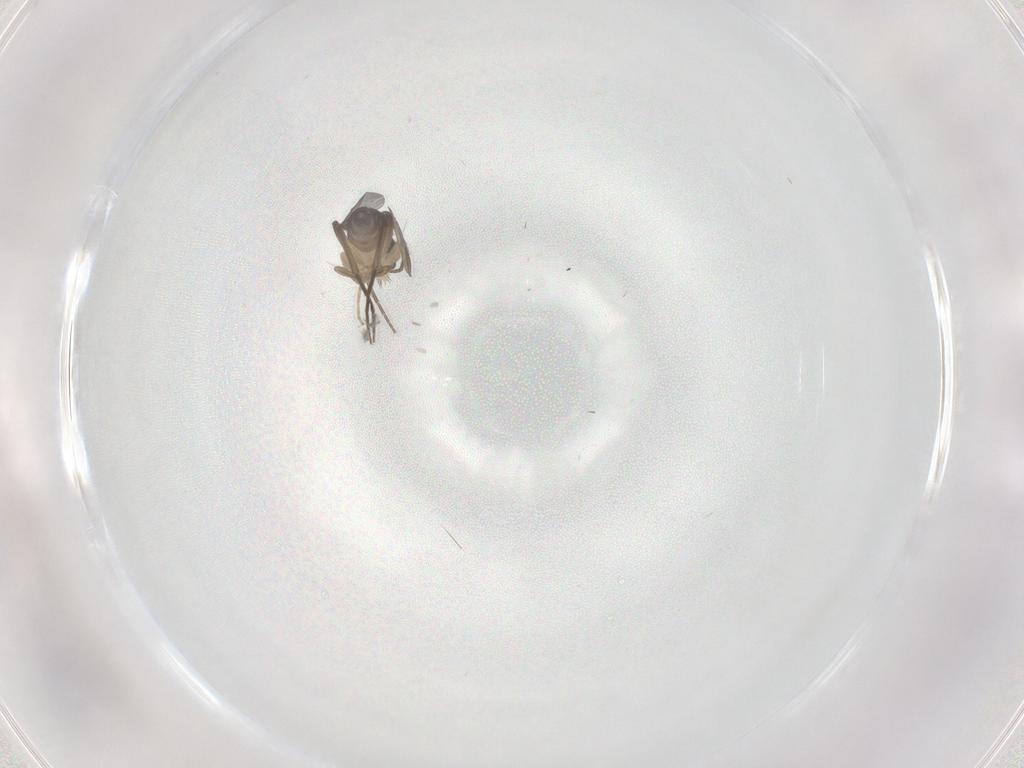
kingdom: Animalia
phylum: Arthropoda
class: Insecta
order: Diptera
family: Phoridae
